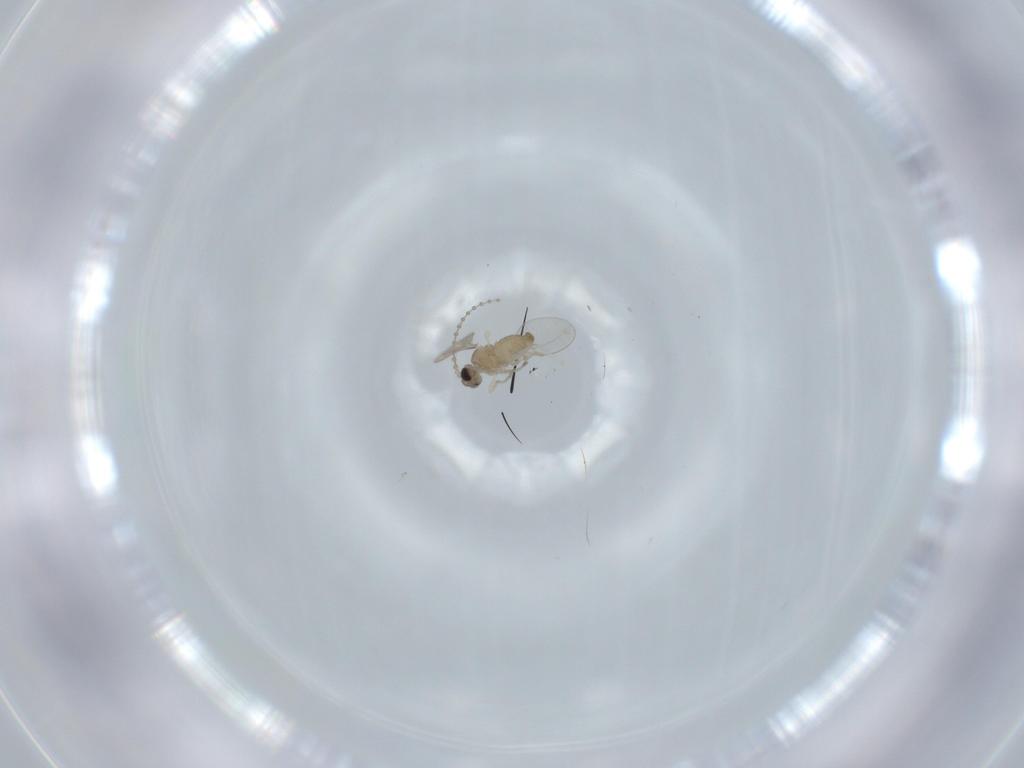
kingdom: Animalia
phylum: Arthropoda
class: Insecta
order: Diptera
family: Cecidomyiidae
